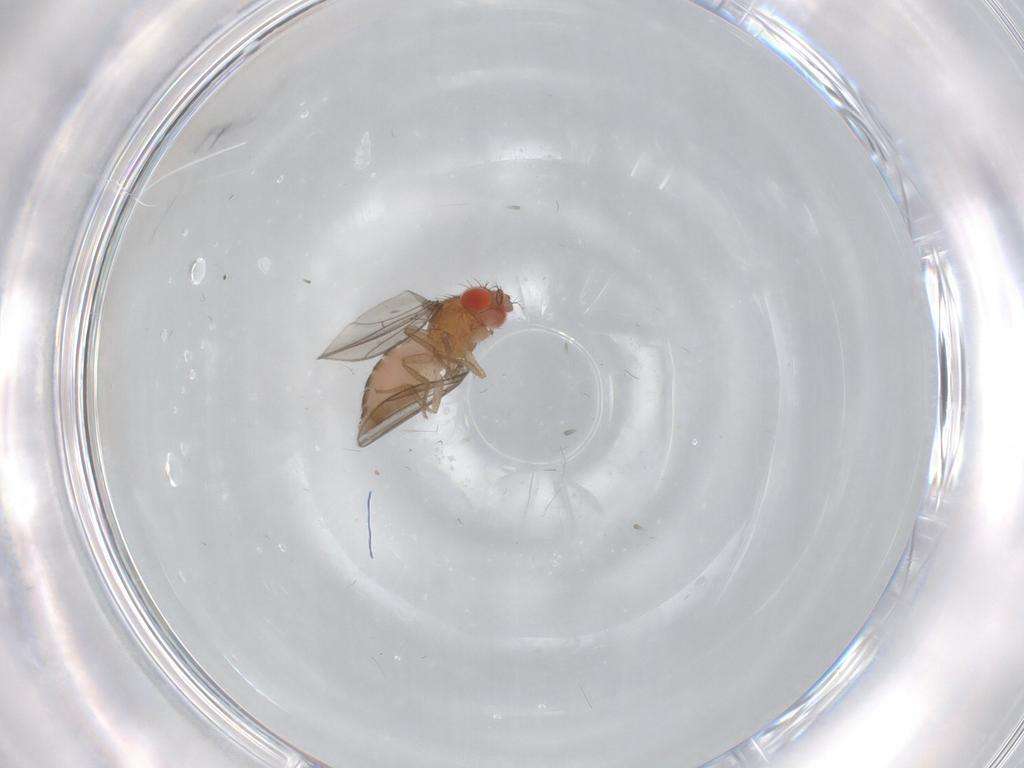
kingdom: Animalia
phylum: Arthropoda
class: Insecta
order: Diptera
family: Drosophilidae
